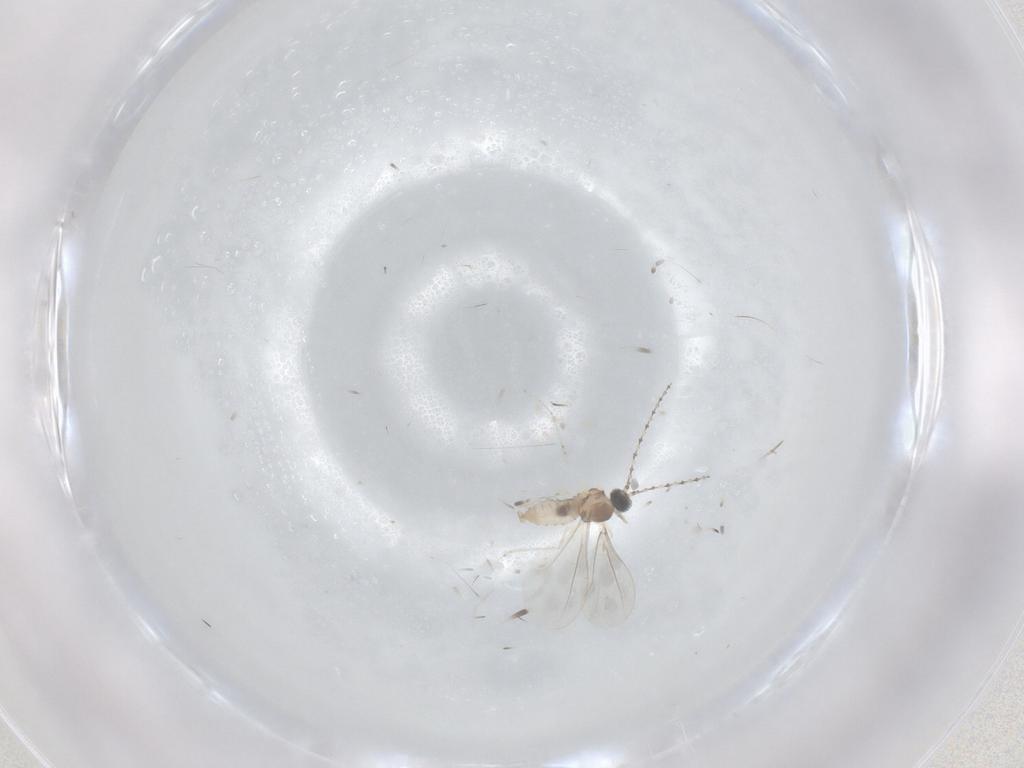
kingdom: Animalia
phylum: Arthropoda
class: Insecta
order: Diptera
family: Cecidomyiidae
